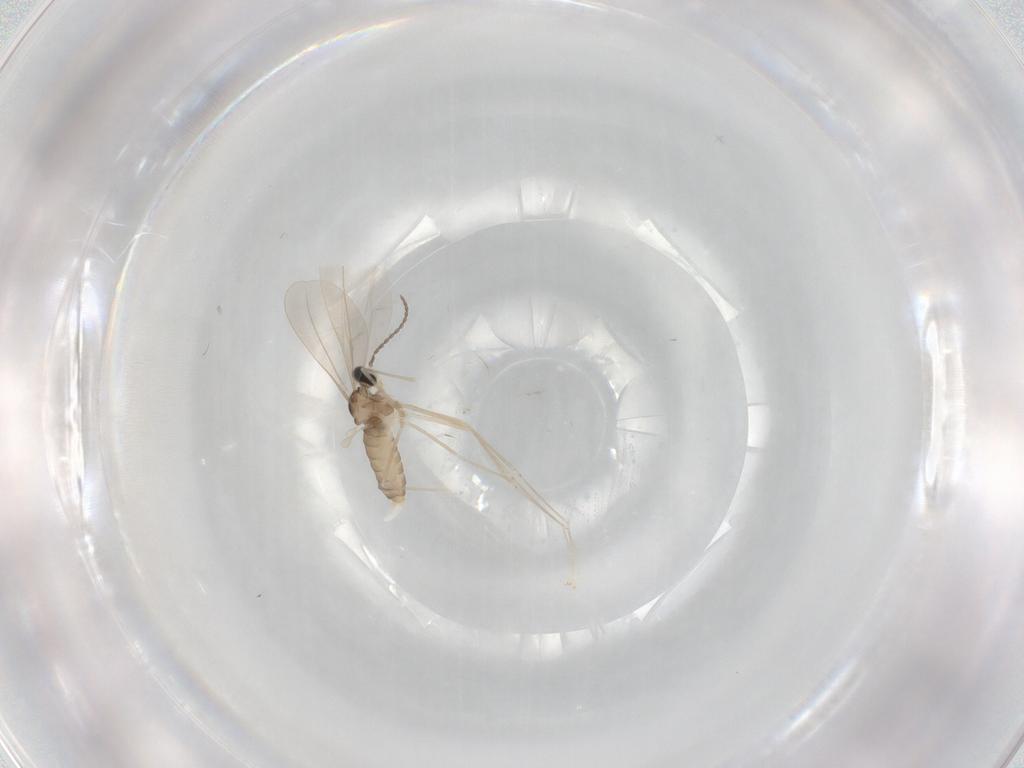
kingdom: Animalia
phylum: Arthropoda
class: Insecta
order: Diptera
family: Cecidomyiidae
